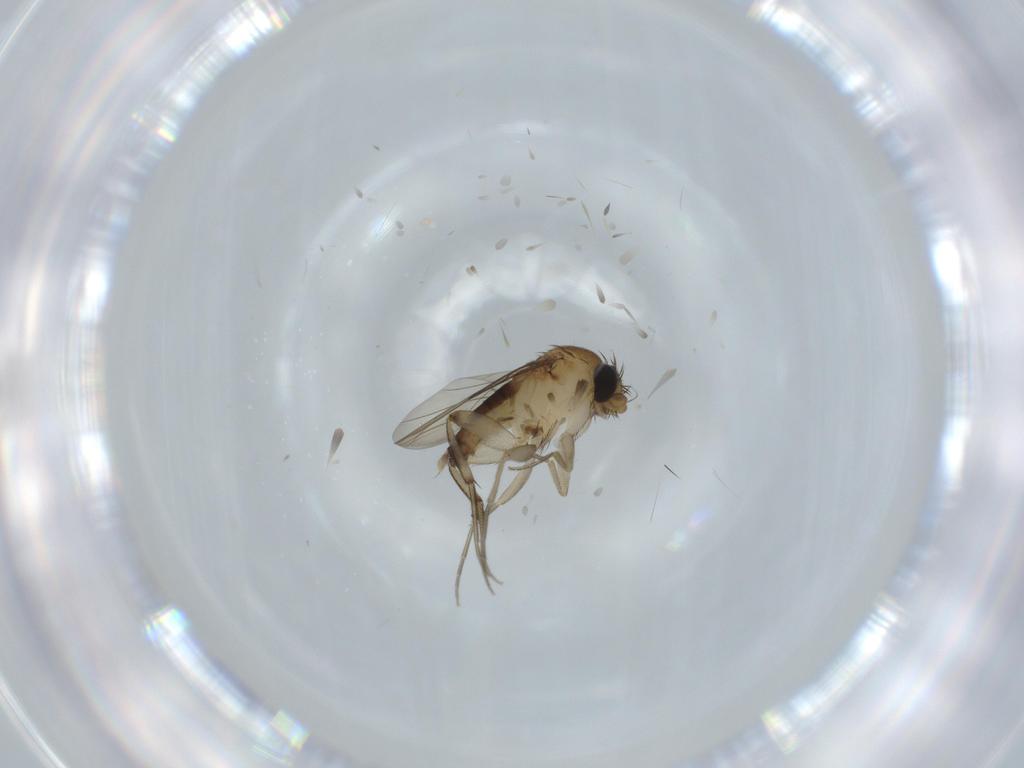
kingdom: Animalia
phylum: Arthropoda
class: Insecta
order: Diptera
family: Phoridae
